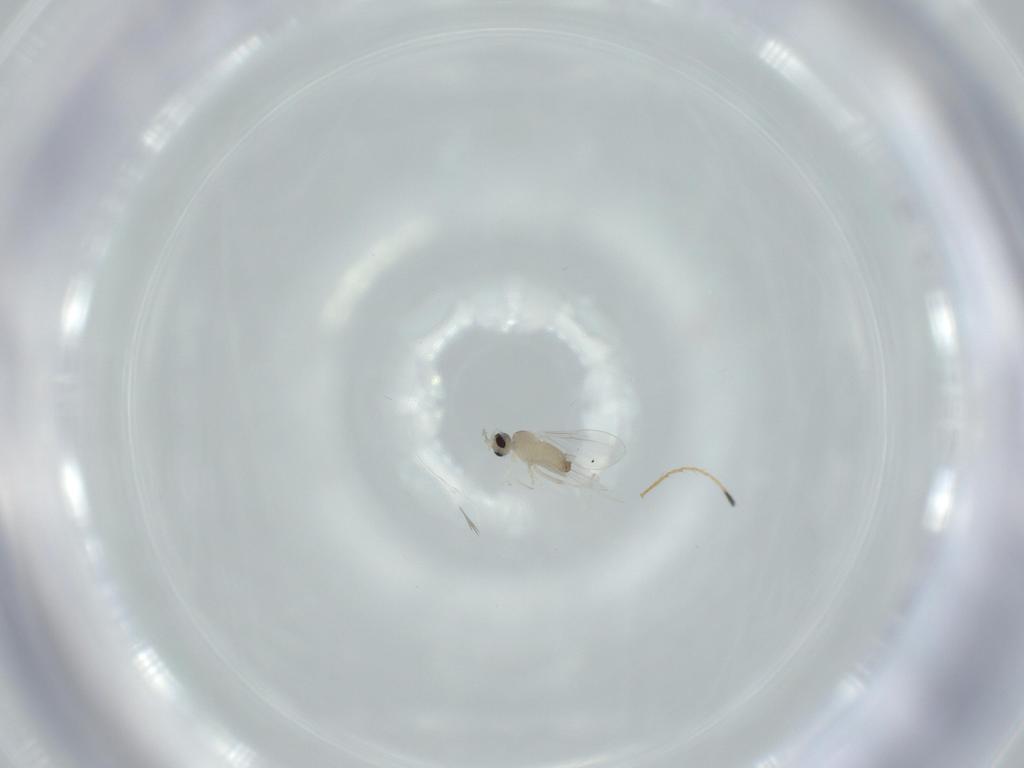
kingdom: Animalia
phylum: Arthropoda
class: Insecta
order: Diptera
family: Cecidomyiidae
